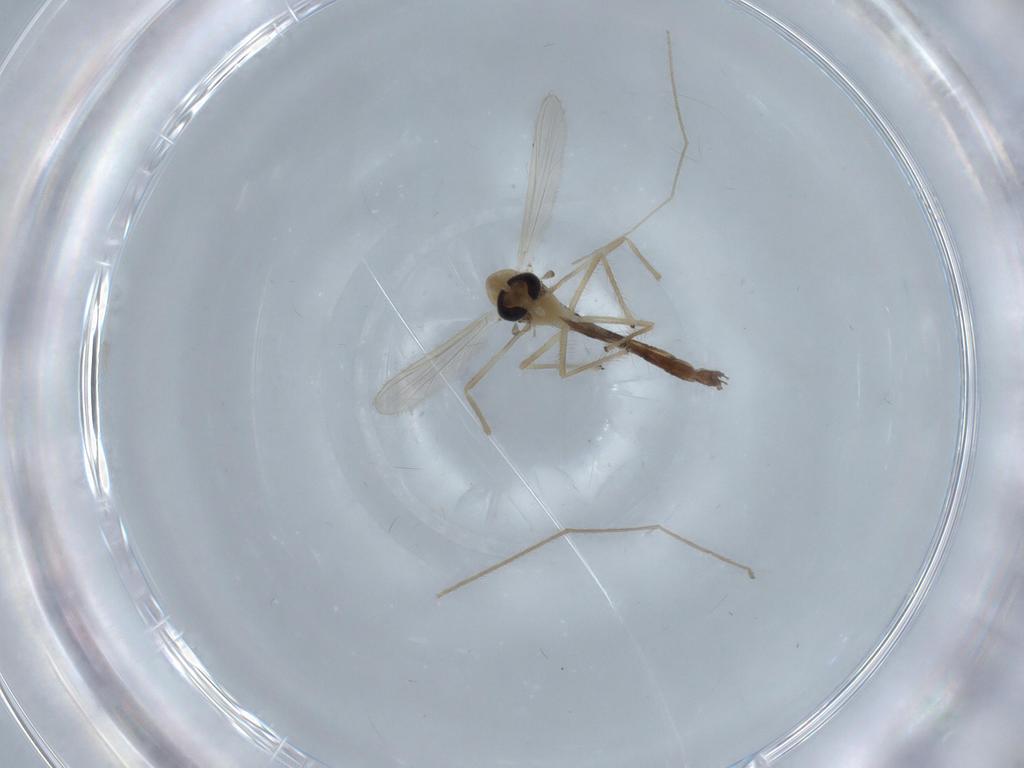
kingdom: Animalia
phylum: Arthropoda
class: Insecta
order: Diptera
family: Chironomidae
